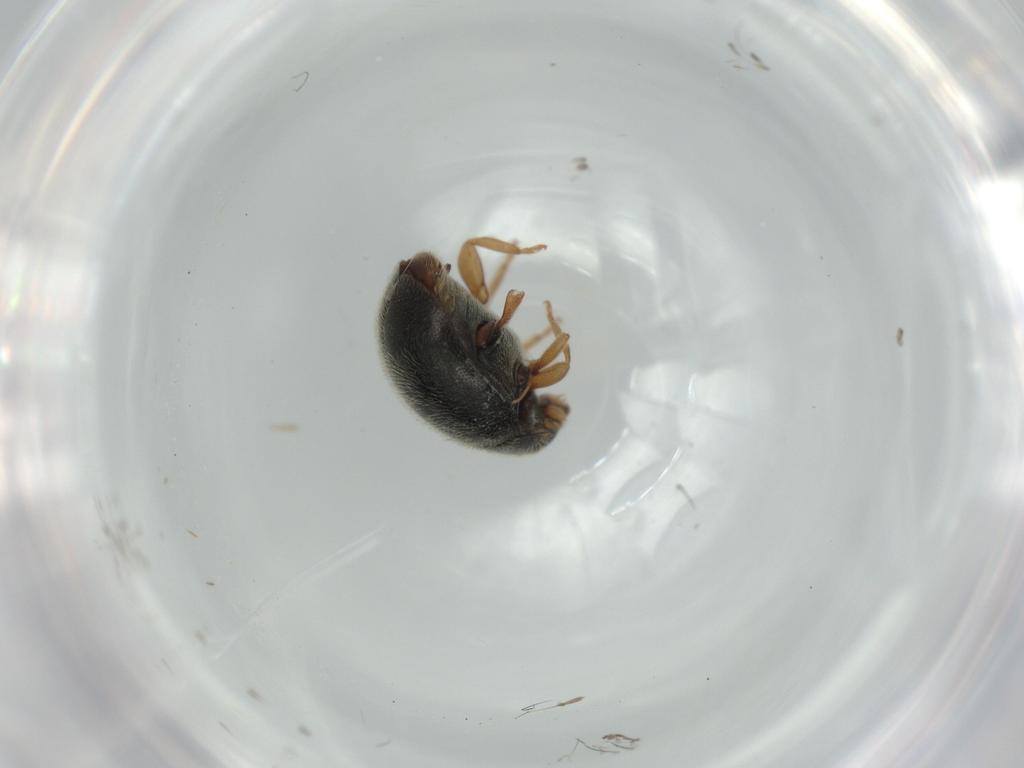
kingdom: Animalia
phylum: Arthropoda
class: Insecta
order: Coleoptera
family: Coccinellidae
